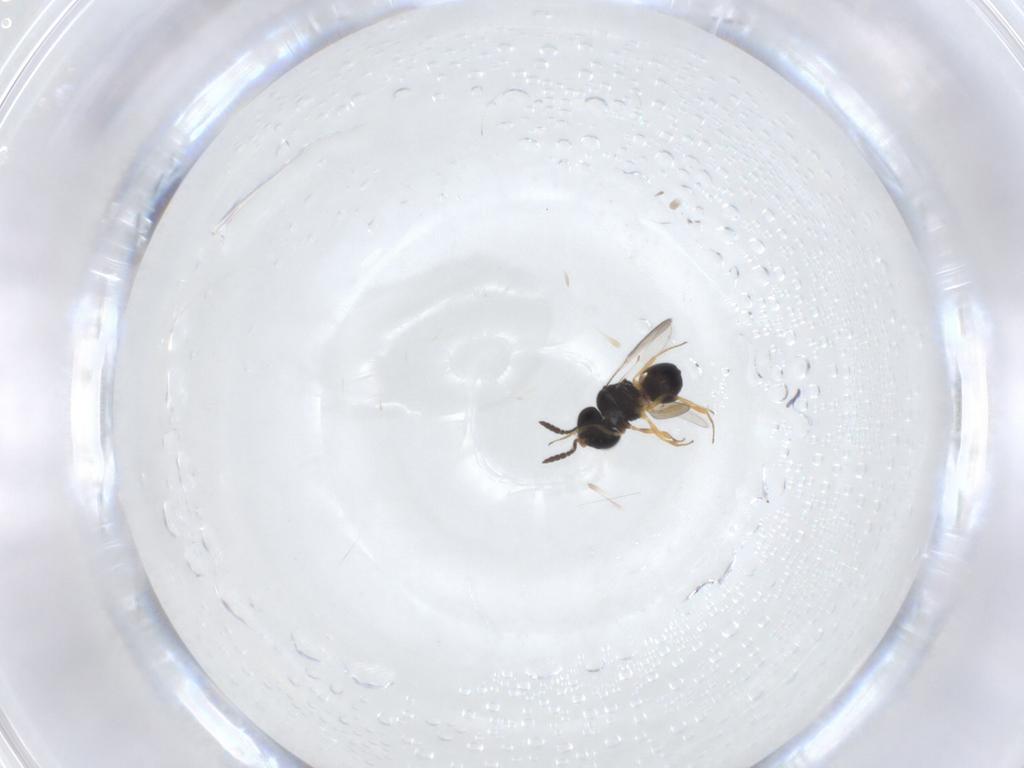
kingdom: Animalia
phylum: Arthropoda
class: Insecta
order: Hymenoptera
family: Scelionidae
